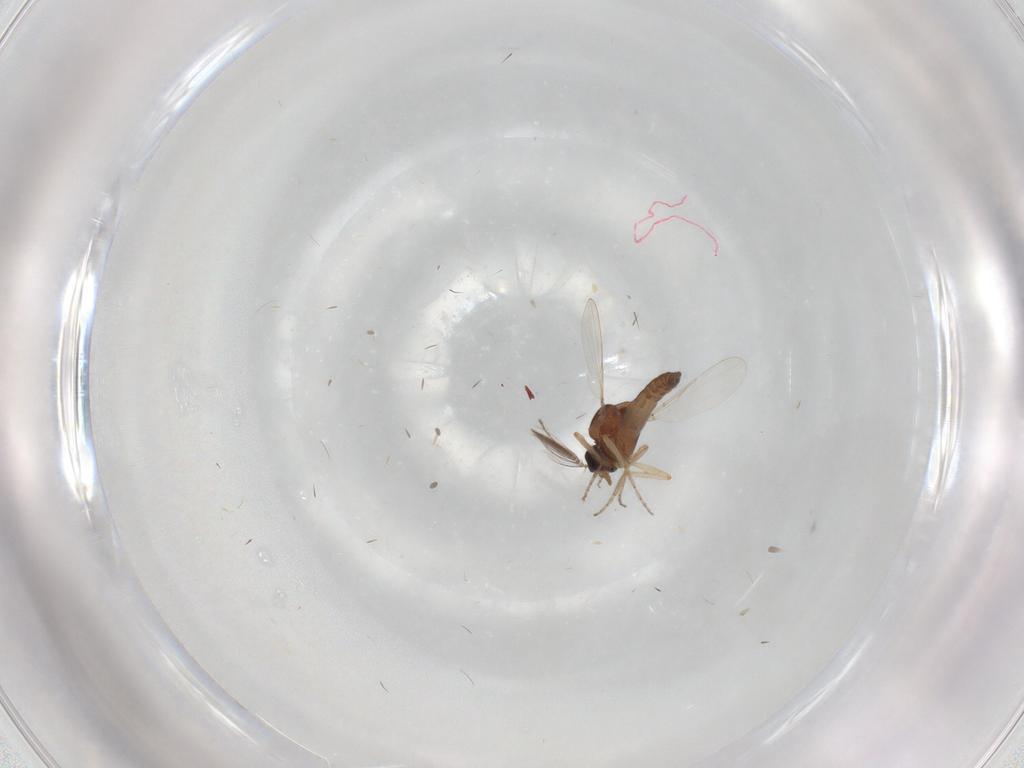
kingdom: Animalia
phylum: Arthropoda
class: Insecta
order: Diptera
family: Ceratopogonidae
